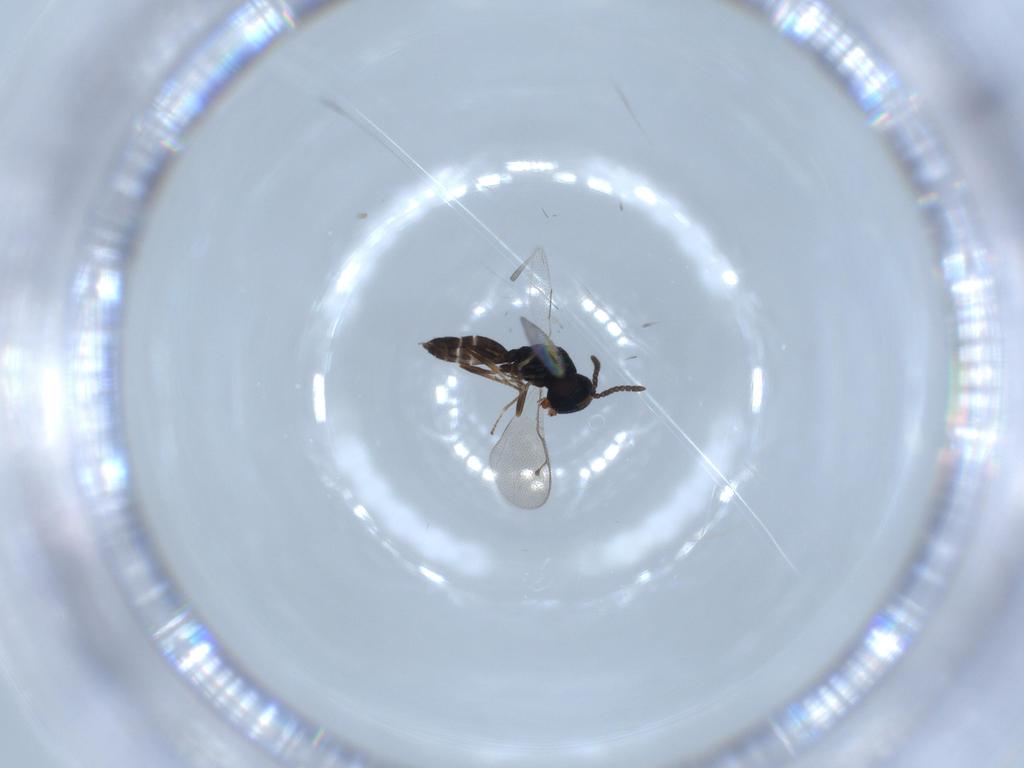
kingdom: Animalia
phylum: Arthropoda
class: Insecta
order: Hymenoptera
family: Pteromalidae
